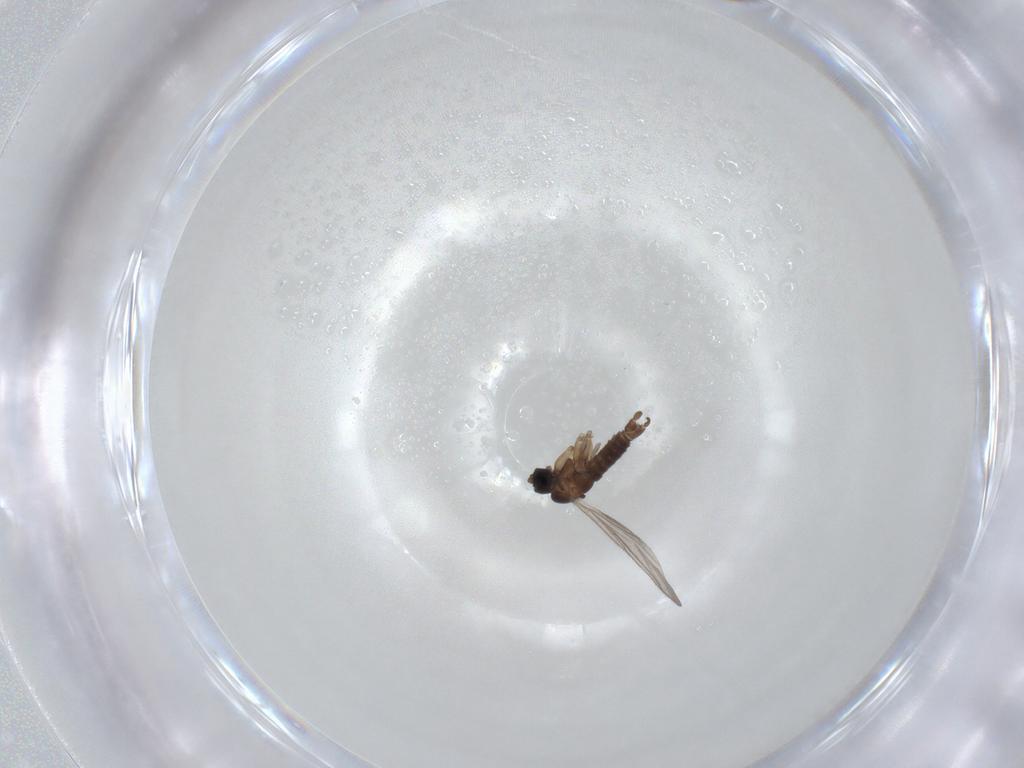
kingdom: Animalia
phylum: Arthropoda
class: Insecta
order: Diptera
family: Sciaridae
